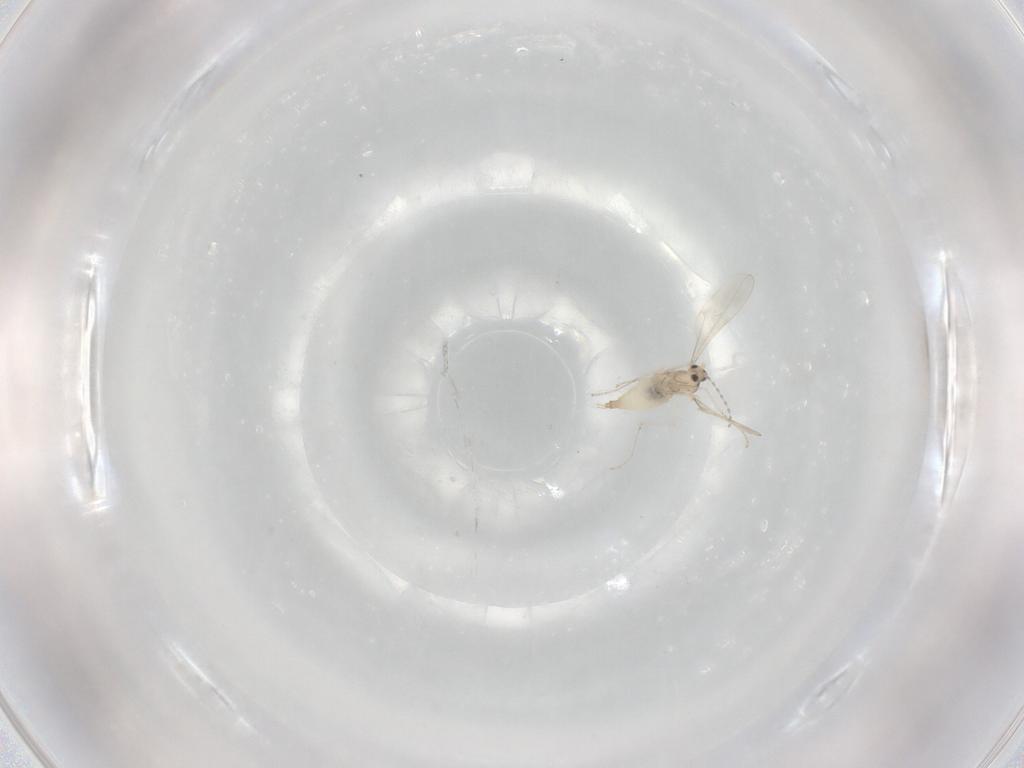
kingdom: Animalia
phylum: Arthropoda
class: Insecta
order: Diptera
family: Cecidomyiidae
